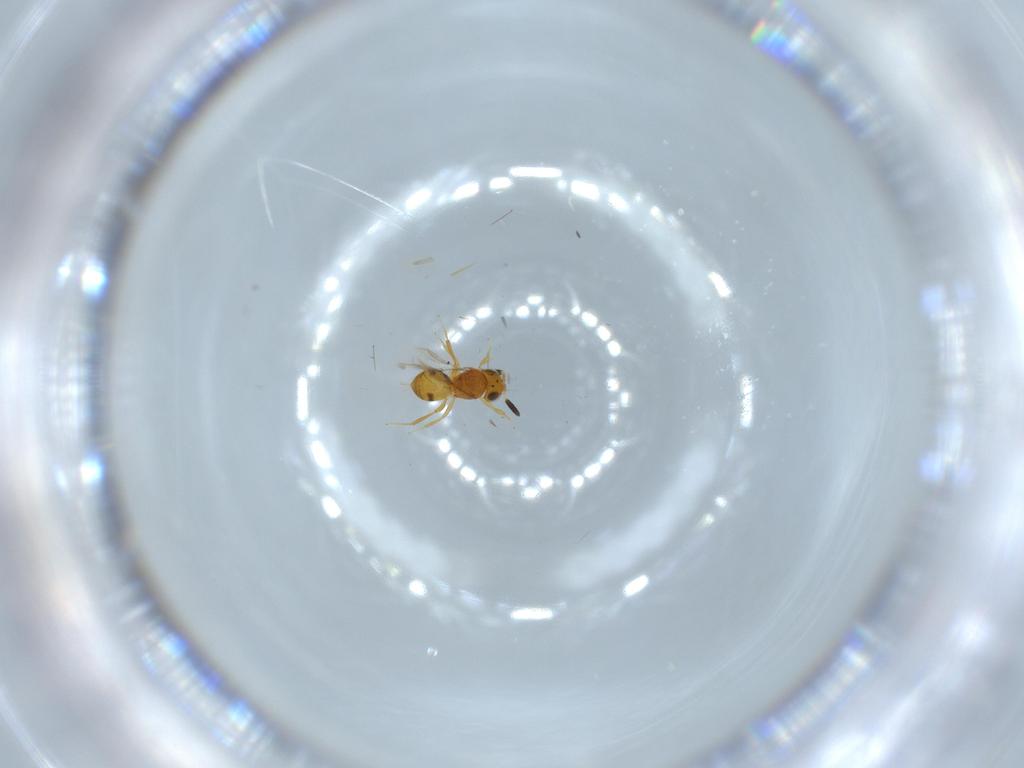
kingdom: Animalia
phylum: Arthropoda
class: Insecta
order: Hymenoptera
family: Scelionidae
